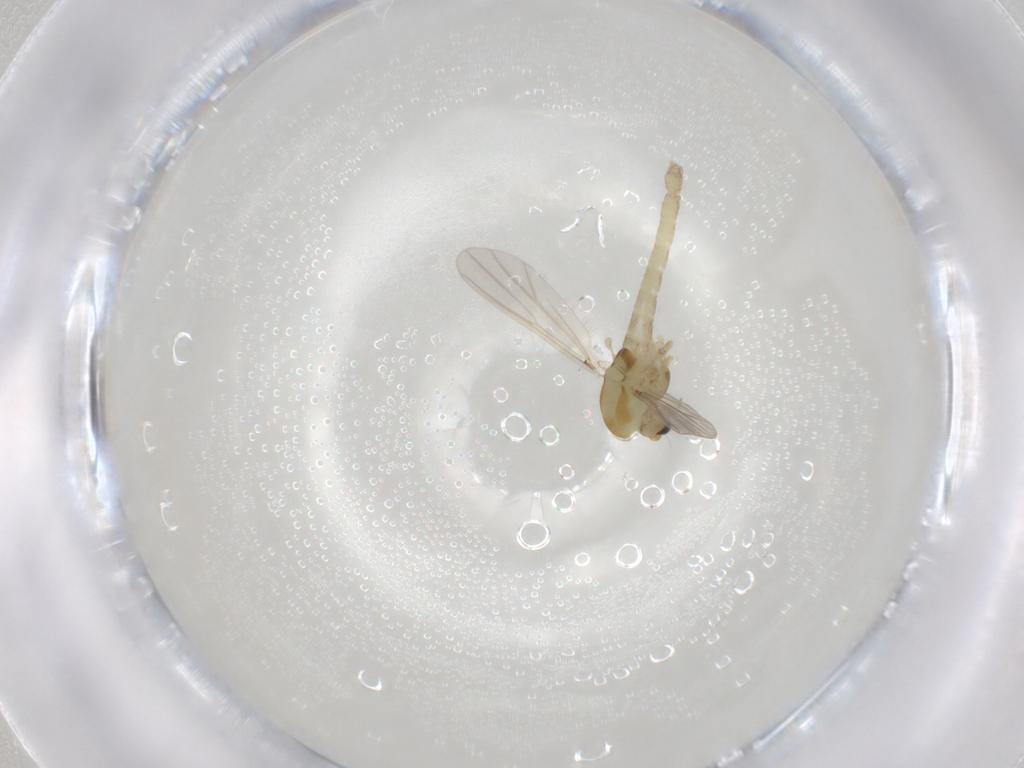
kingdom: Animalia
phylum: Arthropoda
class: Insecta
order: Diptera
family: Chironomidae
